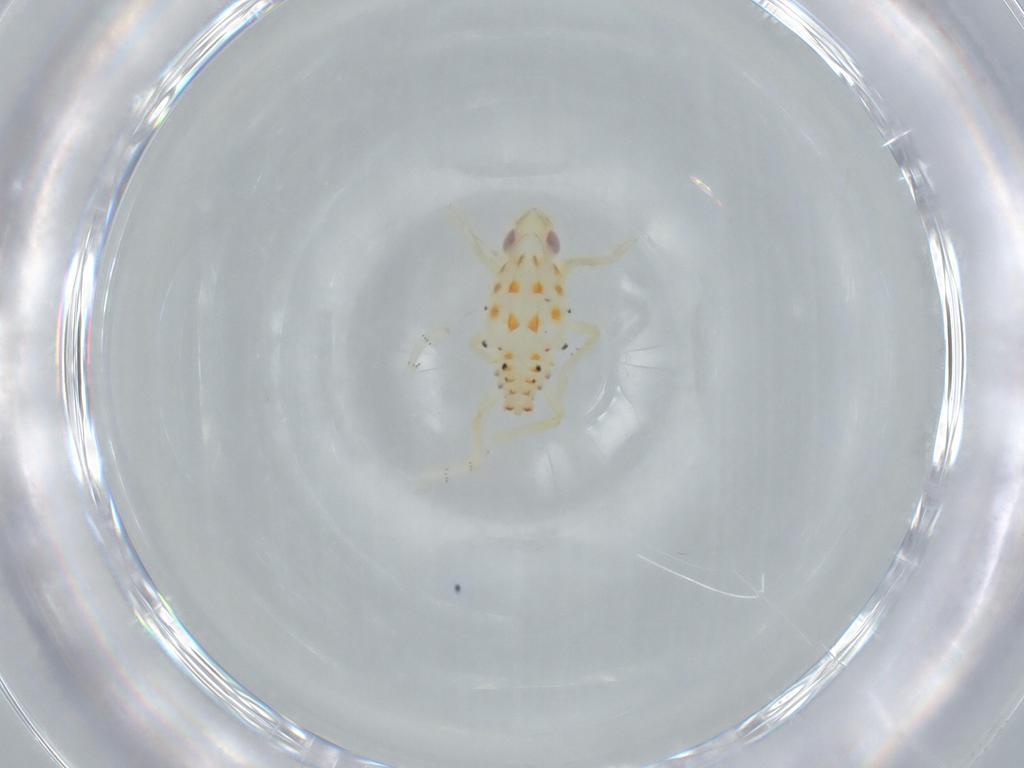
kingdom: Animalia
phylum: Arthropoda
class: Insecta
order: Hemiptera
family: Tropiduchidae
